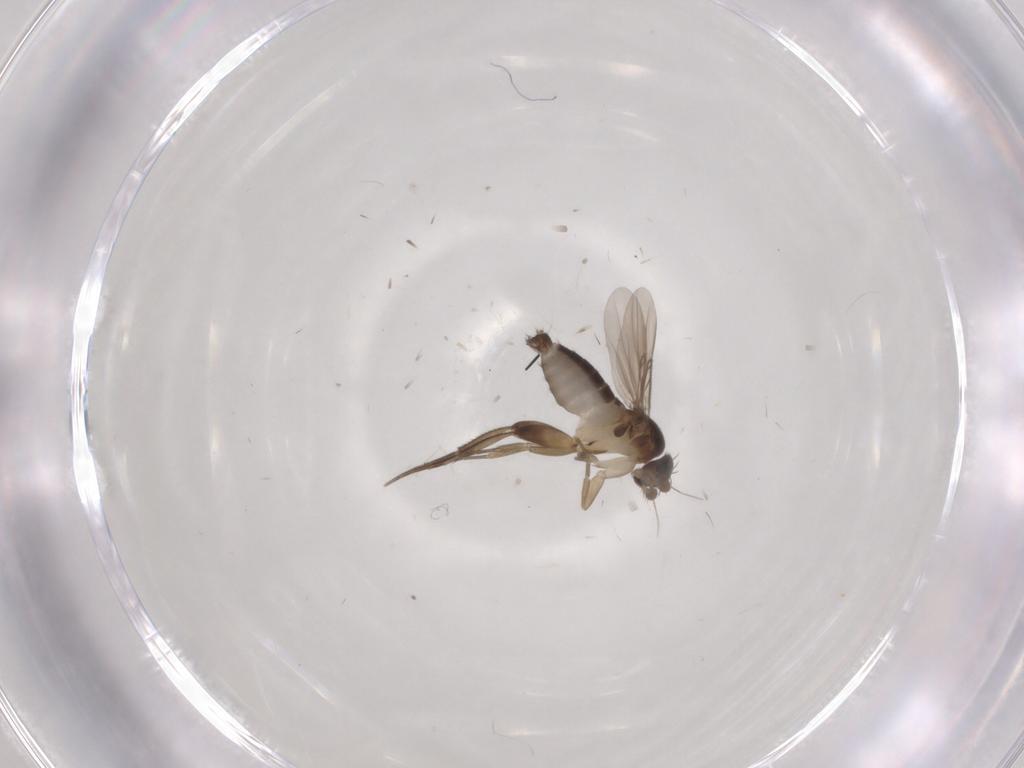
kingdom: Animalia
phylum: Arthropoda
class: Insecta
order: Diptera
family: Phoridae
